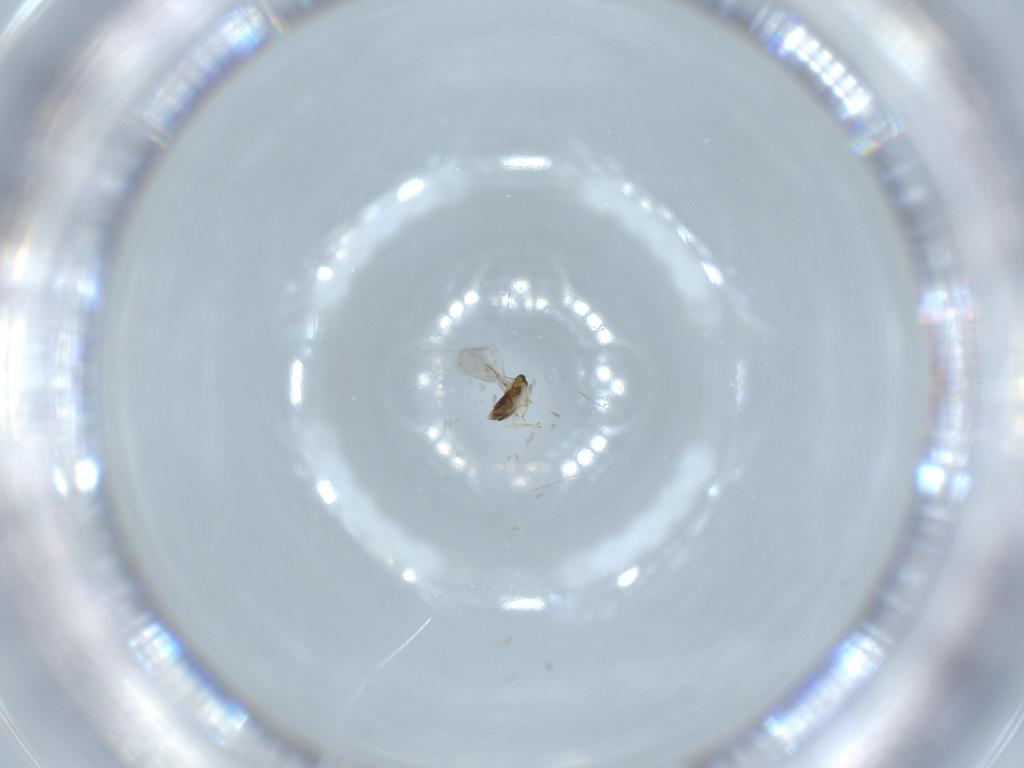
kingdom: Animalia
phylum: Arthropoda
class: Insecta
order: Hymenoptera
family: Aphelinidae
